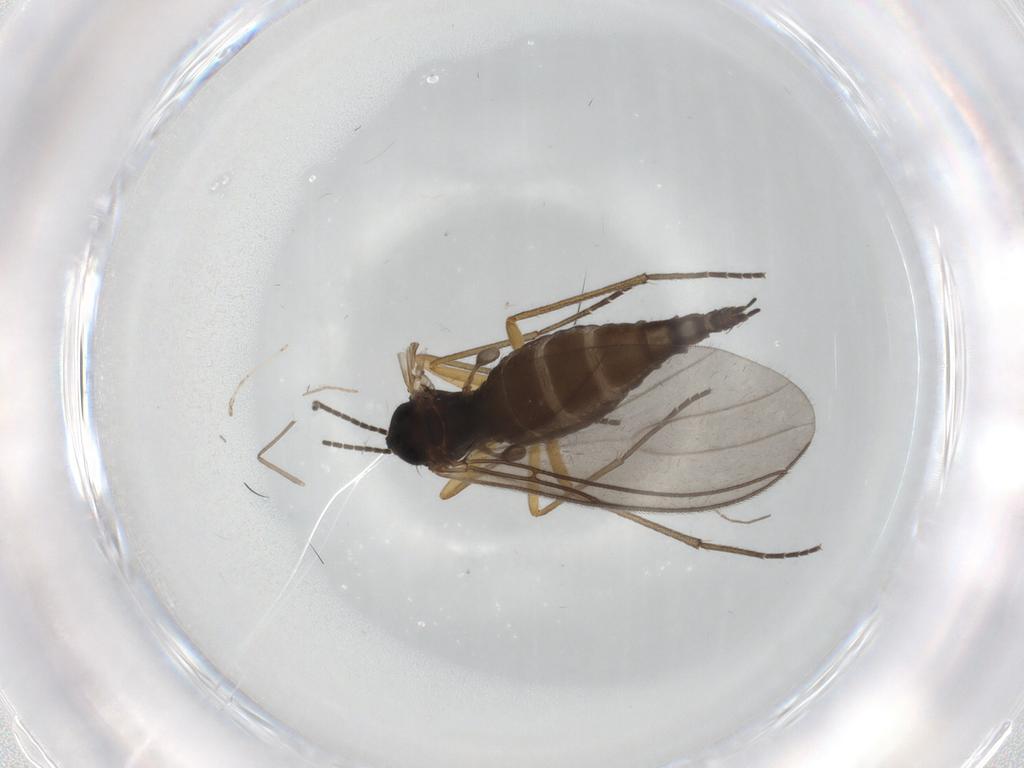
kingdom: Animalia
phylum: Arthropoda
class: Insecta
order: Diptera
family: Sciaridae
